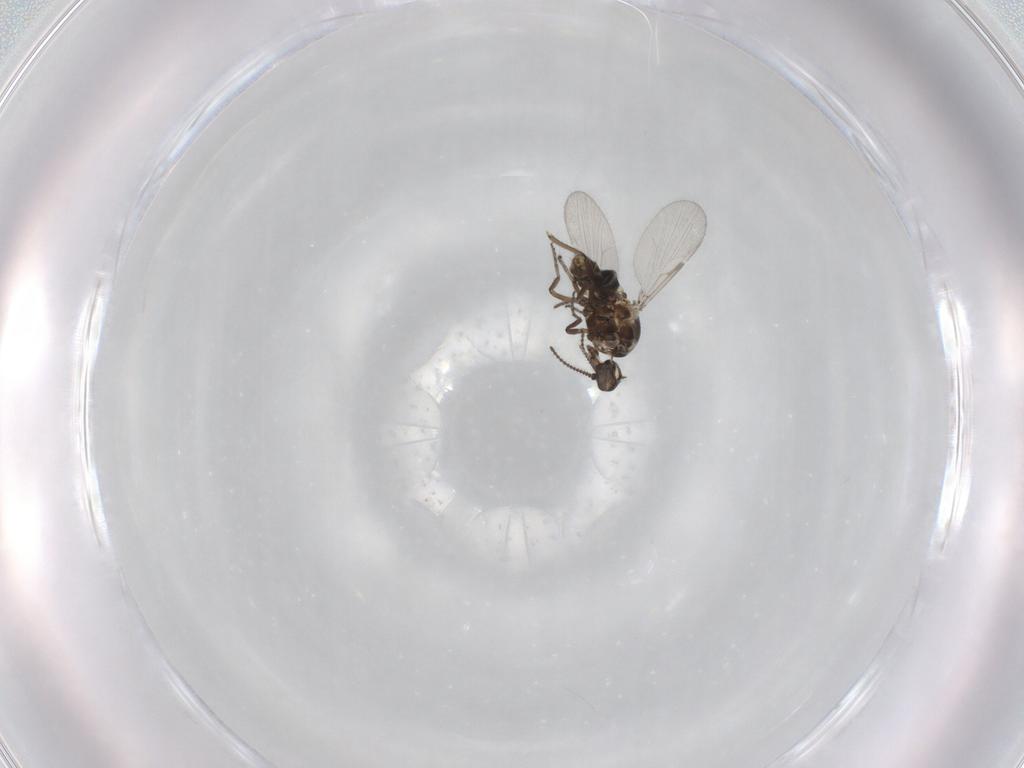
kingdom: Animalia
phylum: Arthropoda
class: Insecta
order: Diptera
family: Ceratopogonidae
